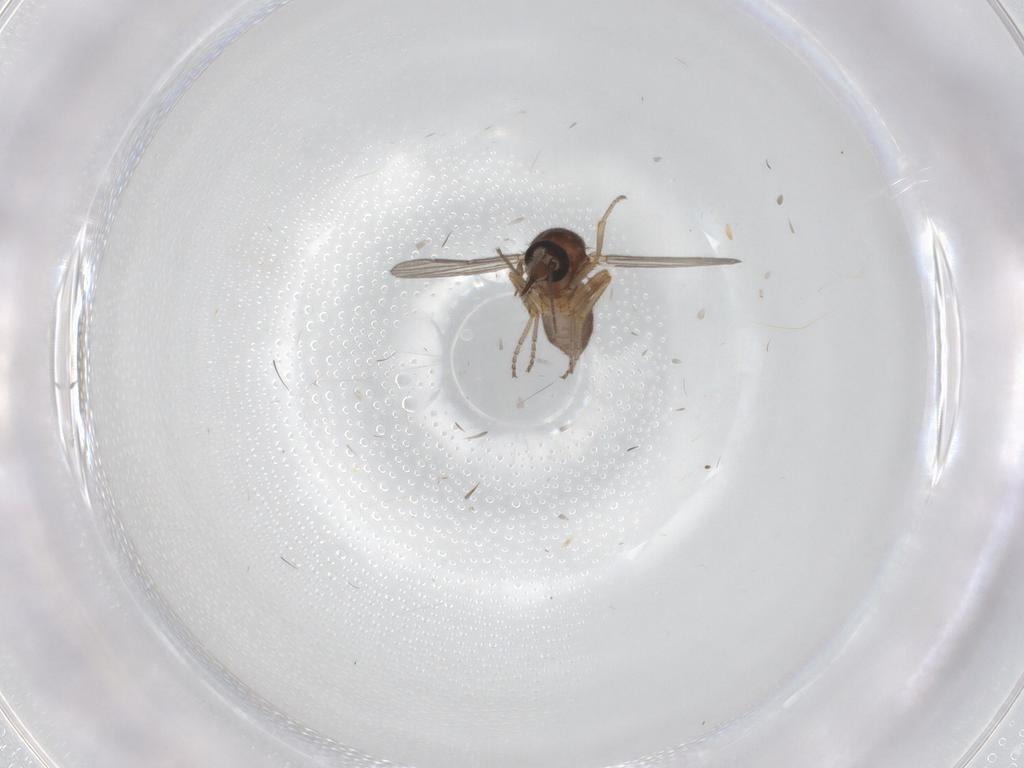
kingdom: Animalia
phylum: Arthropoda
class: Insecta
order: Diptera
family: Ceratopogonidae
